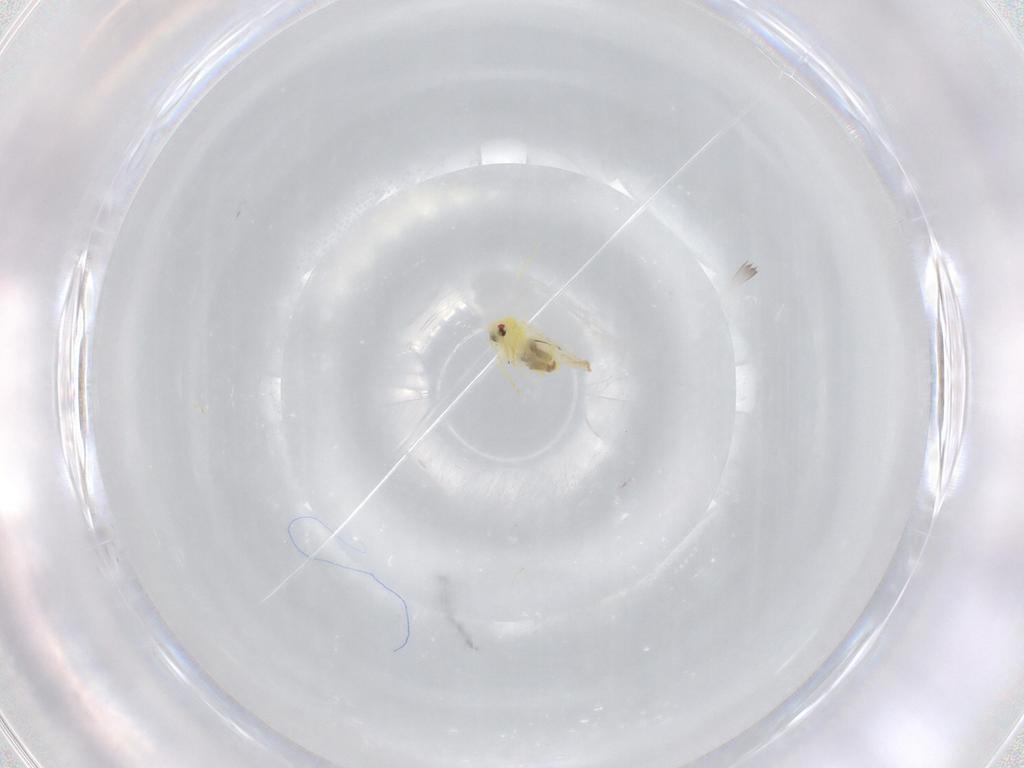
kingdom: Animalia
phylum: Arthropoda
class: Insecta
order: Hemiptera
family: Aleyrodidae
